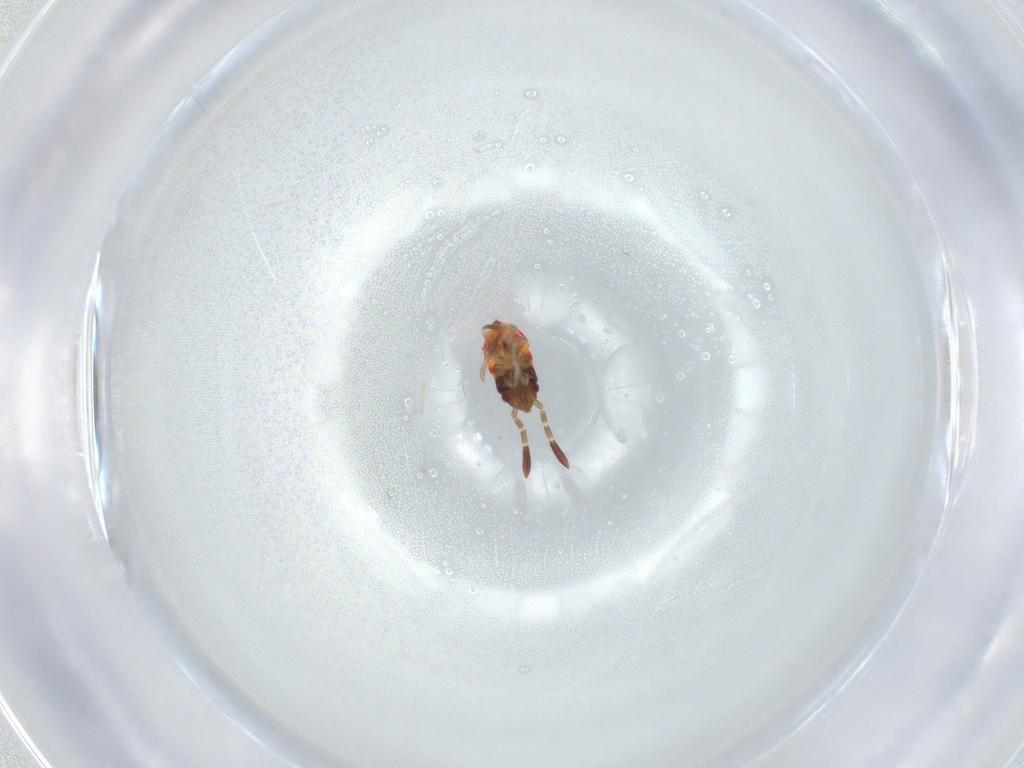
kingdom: Animalia
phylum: Arthropoda
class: Insecta
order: Hemiptera
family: Rhyparochromidae
